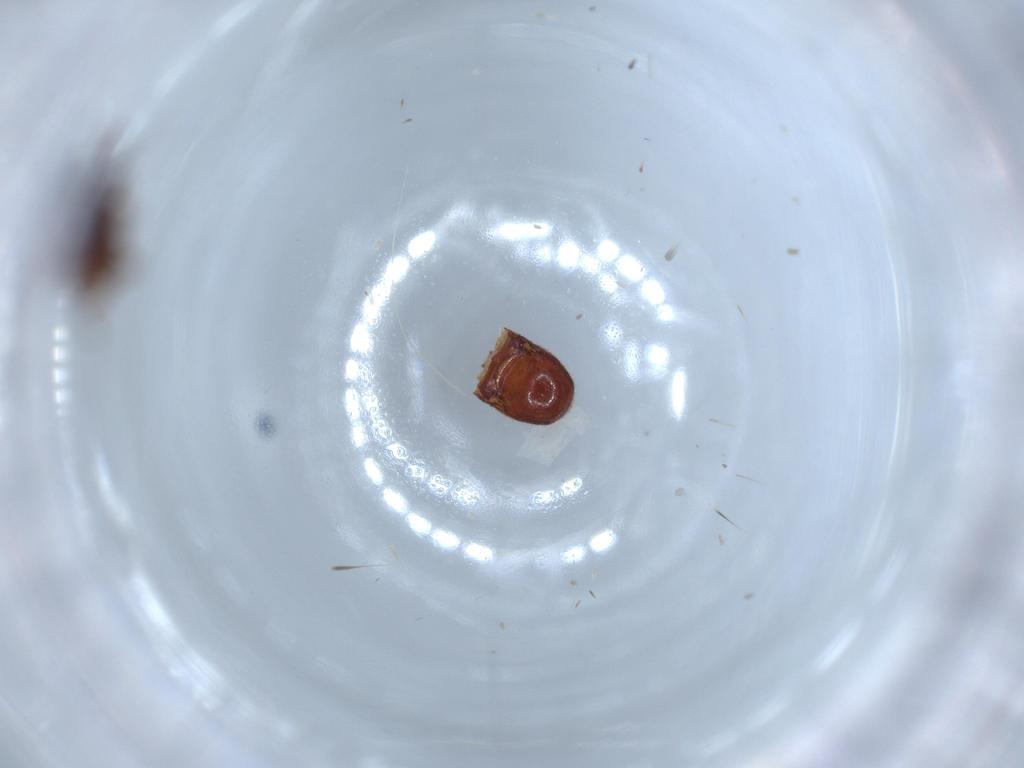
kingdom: Animalia
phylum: Arthropoda
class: Insecta
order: Coleoptera
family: Staphylinidae
